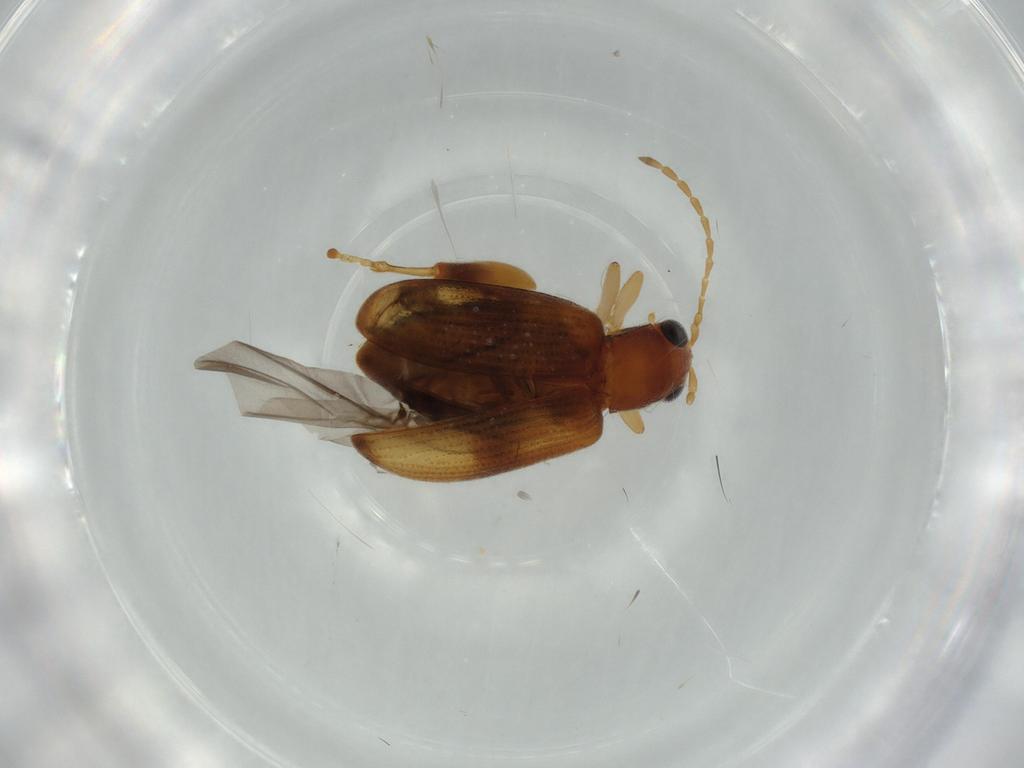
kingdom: Animalia
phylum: Arthropoda
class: Insecta
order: Coleoptera
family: Chrysomelidae
